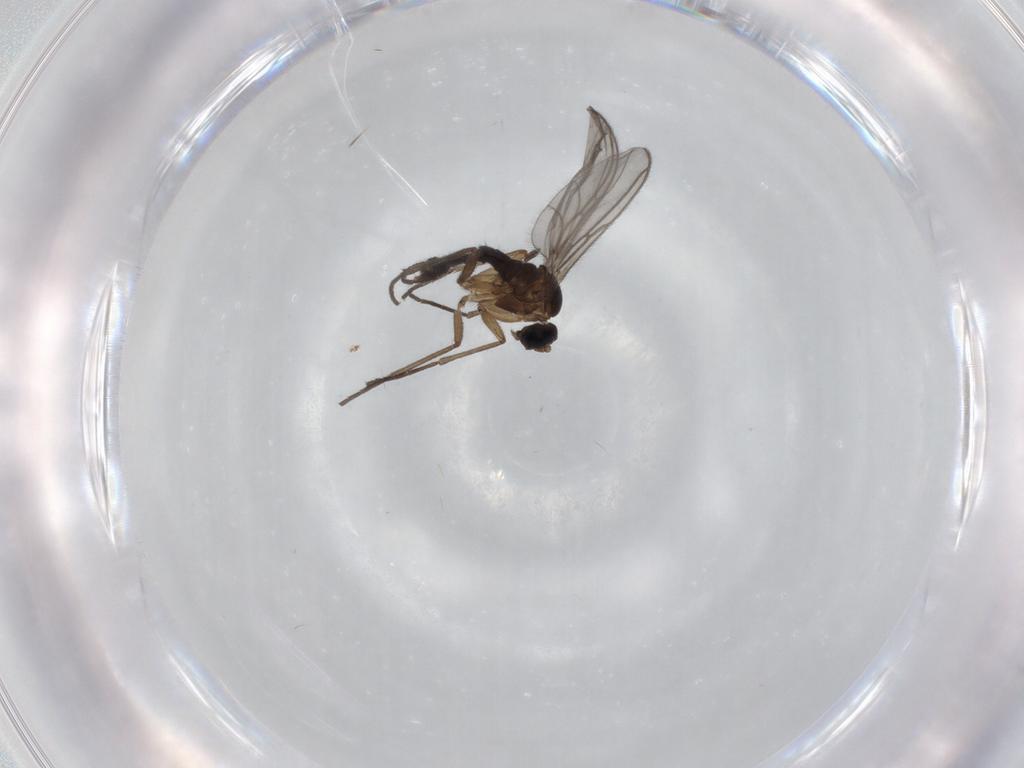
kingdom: Animalia
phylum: Arthropoda
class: Insecta
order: Diptera
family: Sciaridae
